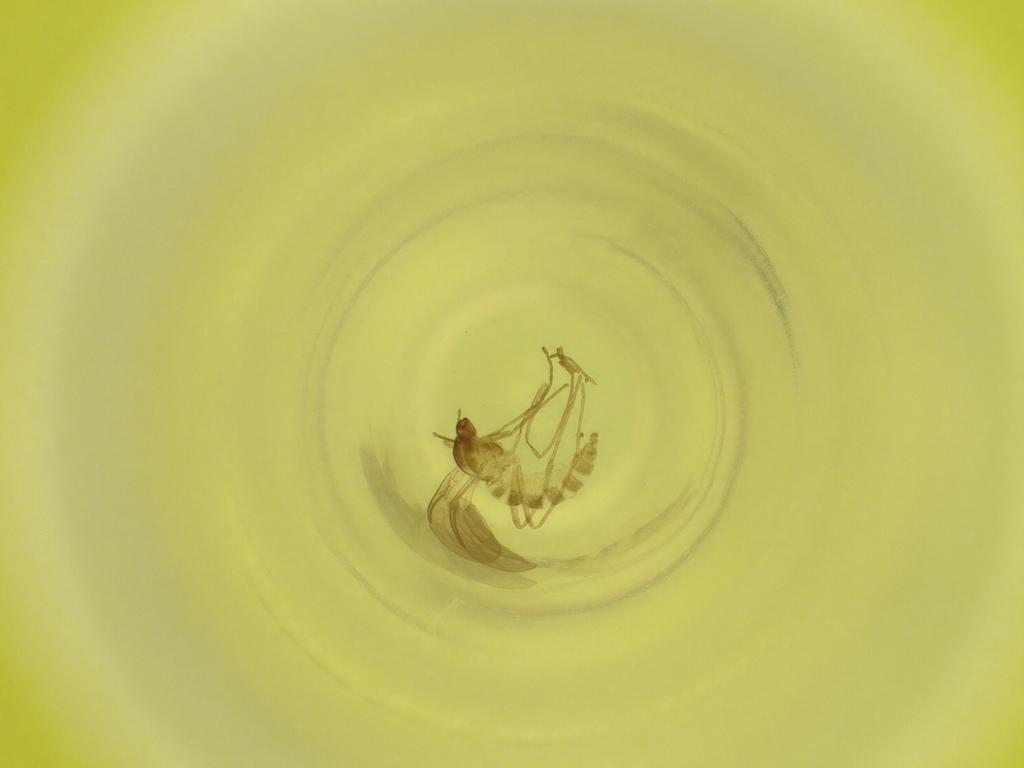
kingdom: Animalia
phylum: Arthropoda
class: Insecta
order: Diptera
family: Cecidomyiidae
